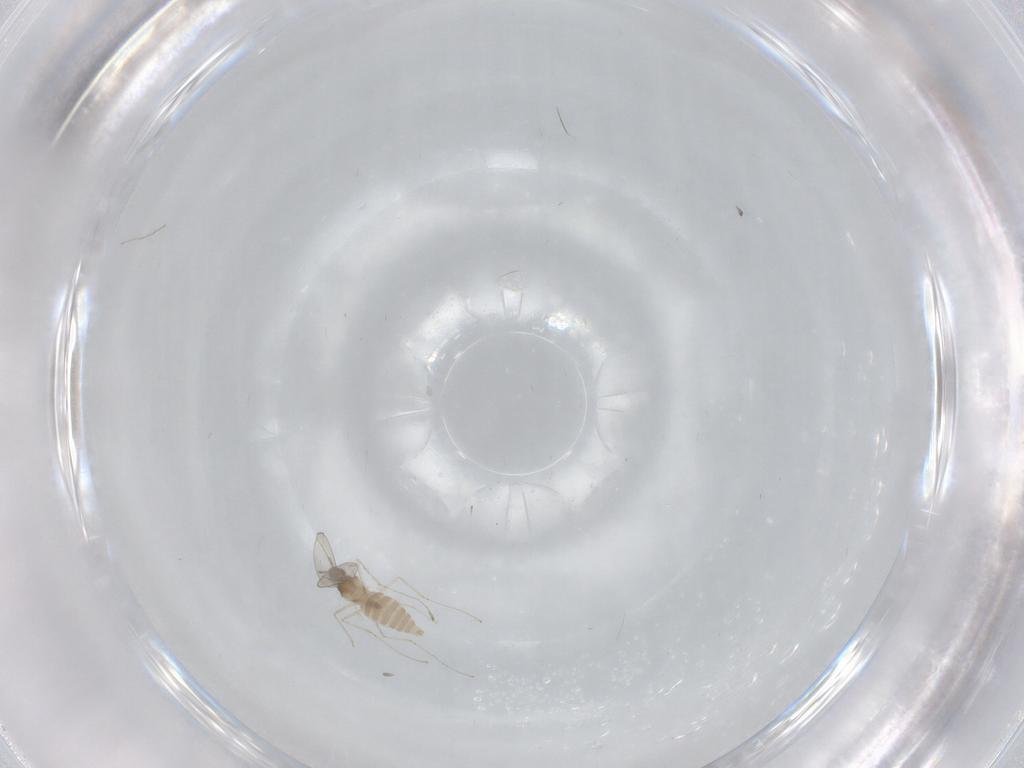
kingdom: Animalia
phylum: Arthropoda
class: Insecta
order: Diptera
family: Cecidomyiidae
